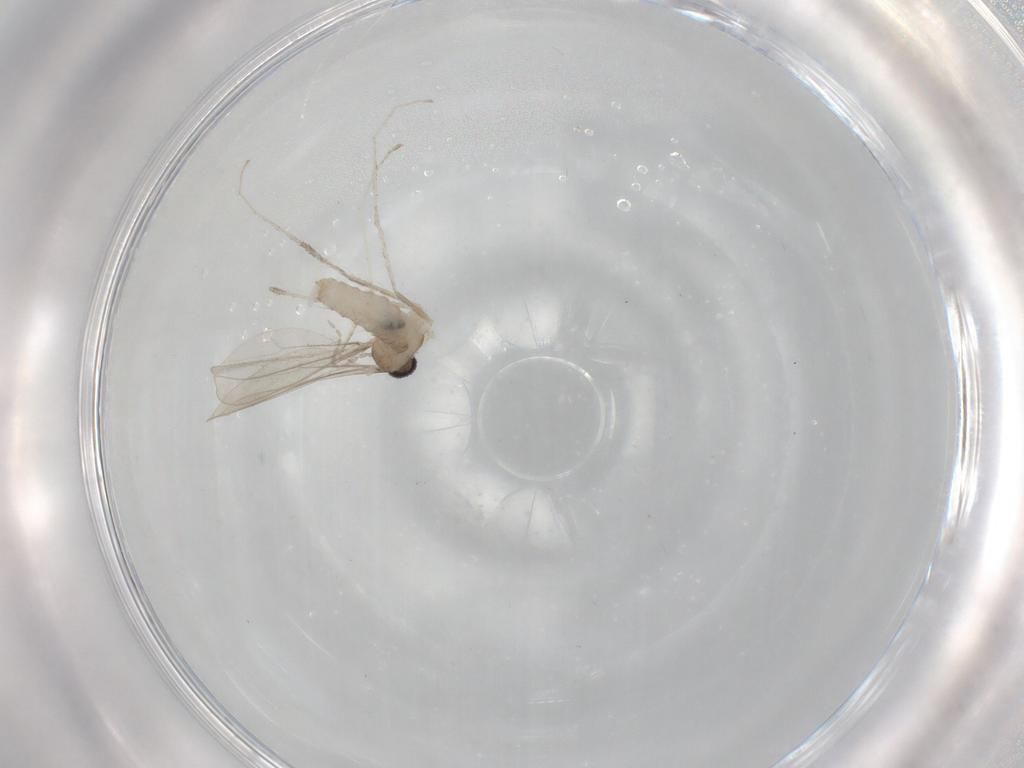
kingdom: Animalia
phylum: Arthropoda
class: Insecta
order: Diptera
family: Cecidomyiidae
